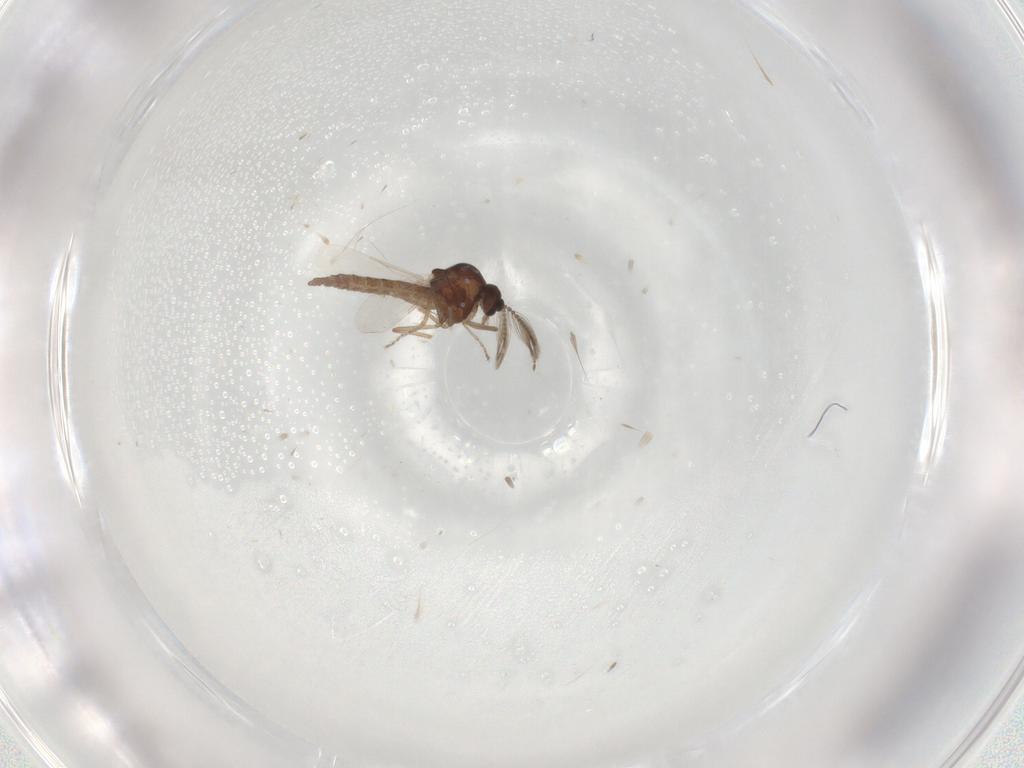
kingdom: Animalia
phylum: Arthropoda
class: Insecta
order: Diptera
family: Ceratopogonidae
